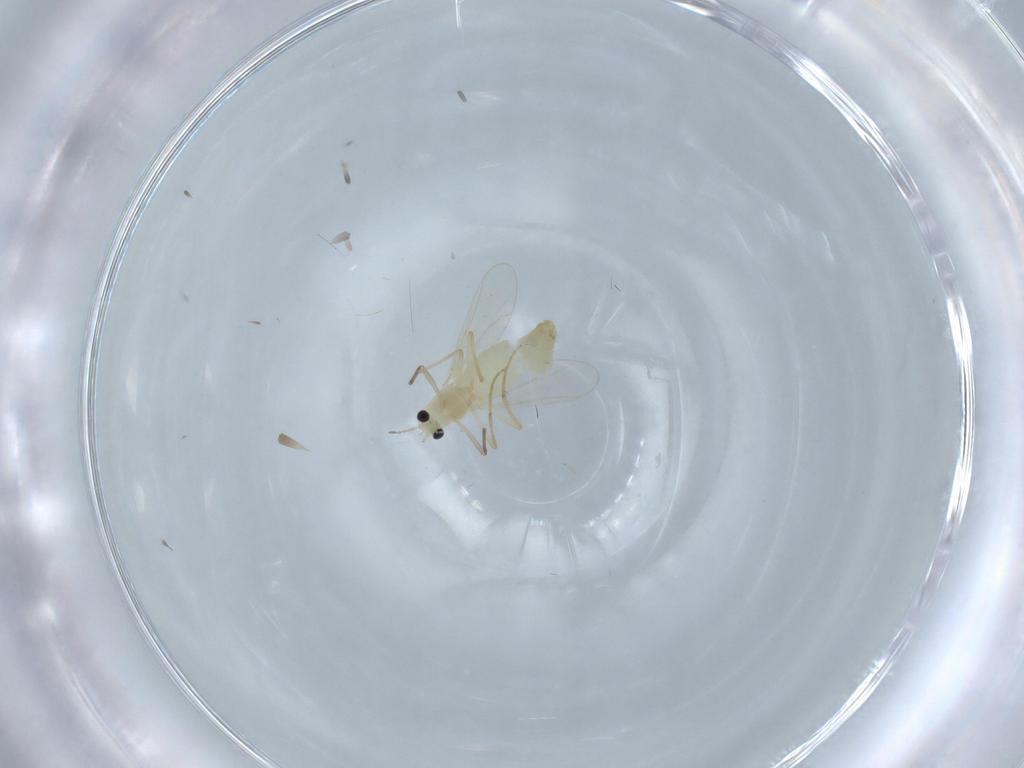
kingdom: Animalia
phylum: Arthropoda
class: Insecta
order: Diptera
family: Chironomidae
